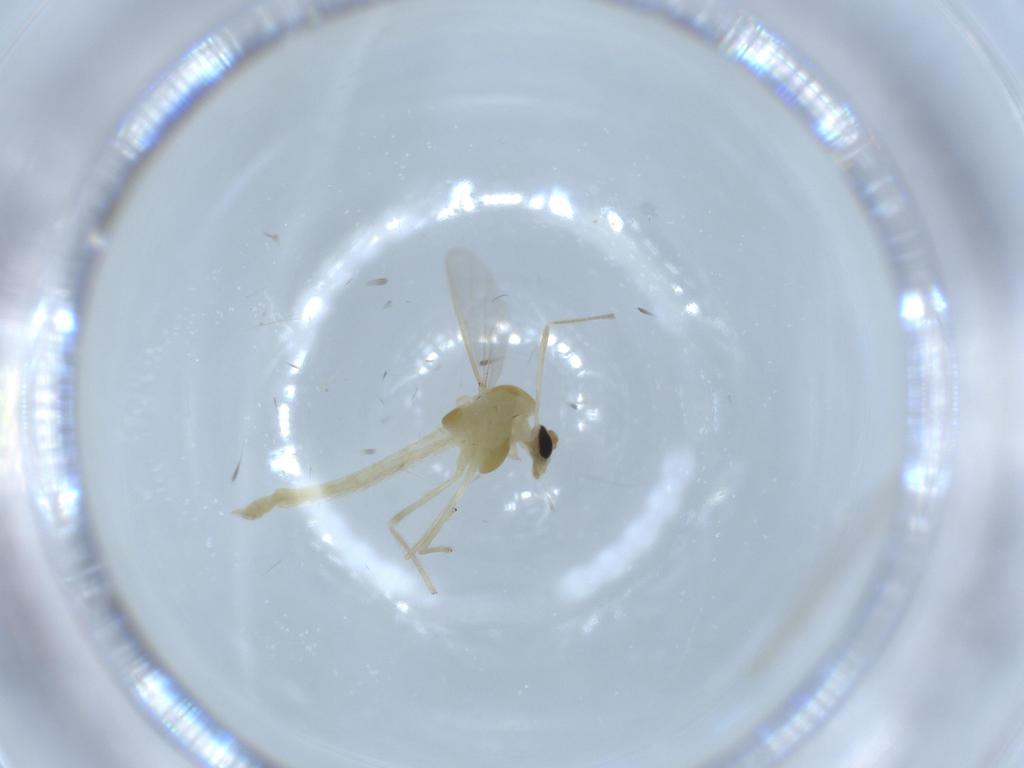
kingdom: Animalia
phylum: Arthropoda
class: Insecta
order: Diptera
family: Chironomidae
